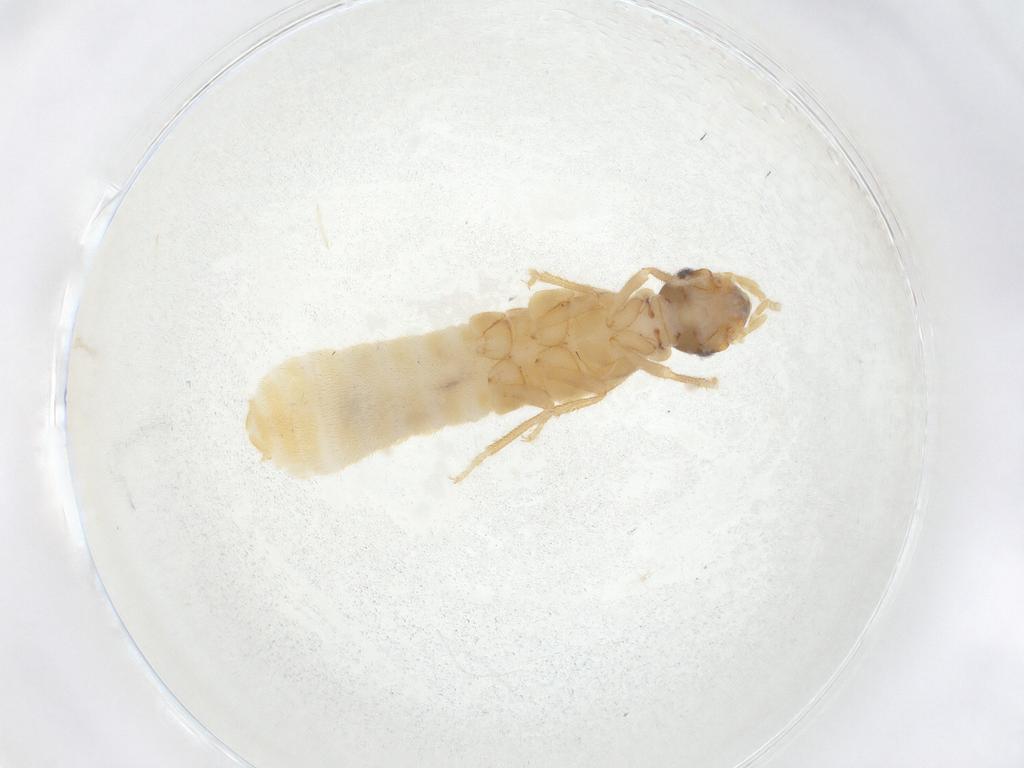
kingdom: Animalia
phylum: Arthropoda
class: Insecta
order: Blattodea
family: Termitidae
